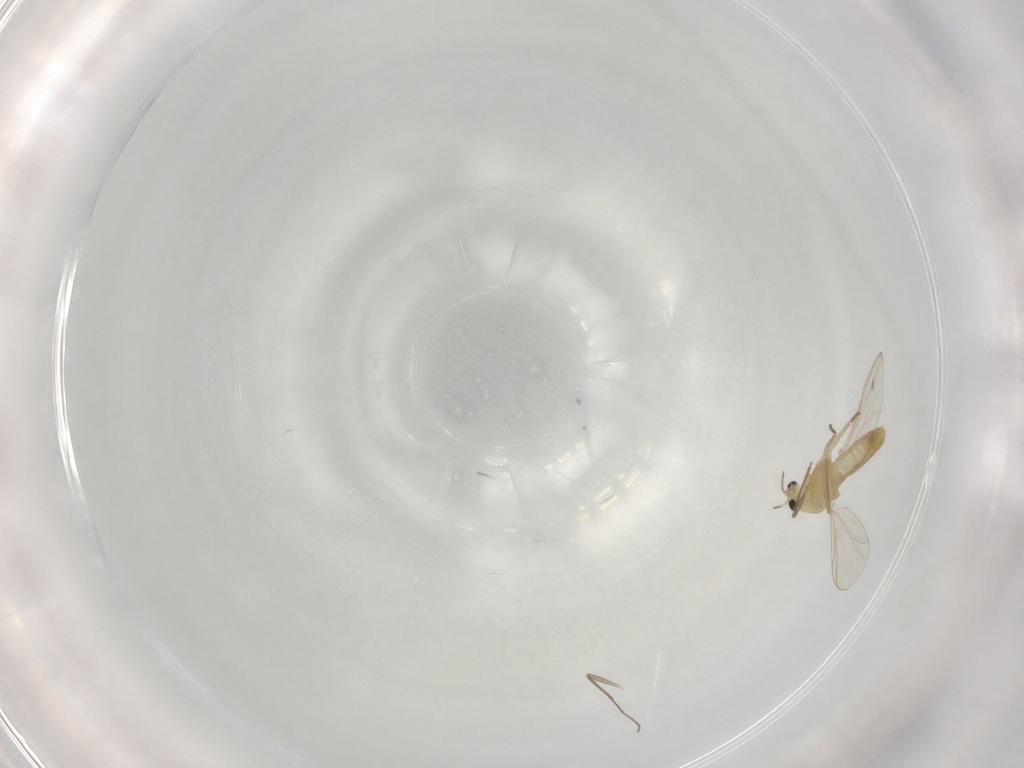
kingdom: Animalia
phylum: Arthropoda
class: Insecta
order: Diptera
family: Chironomidae
